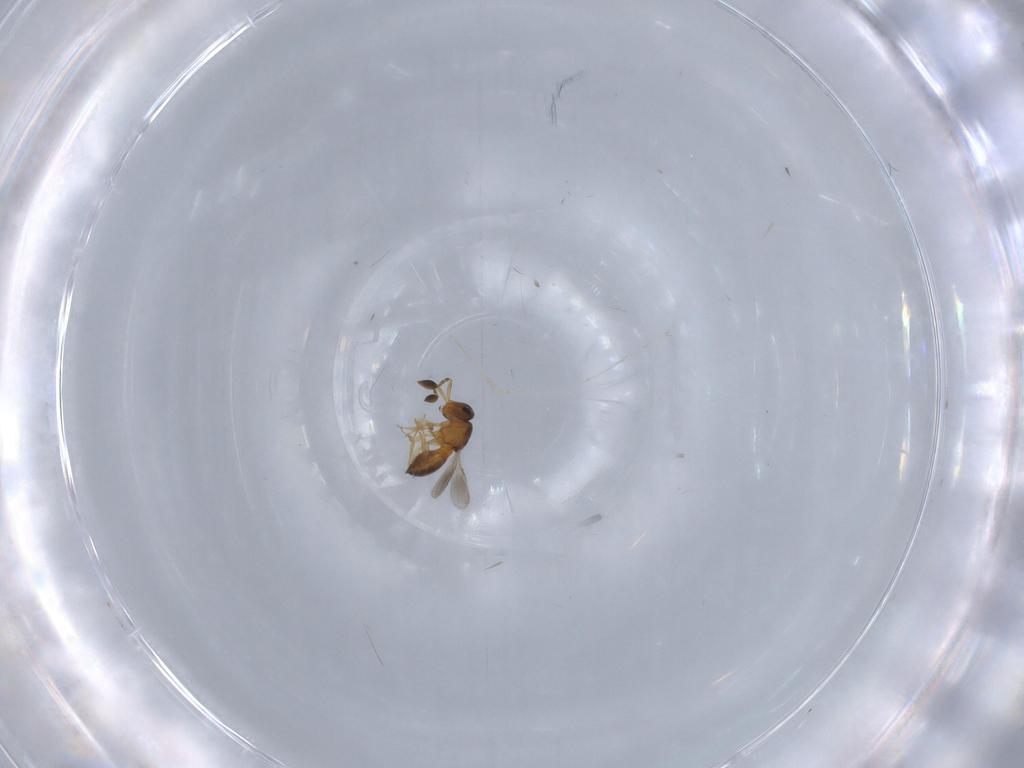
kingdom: Animalia
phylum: Arthropoda
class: Insecta
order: Hymenoptera
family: Scelionidae
